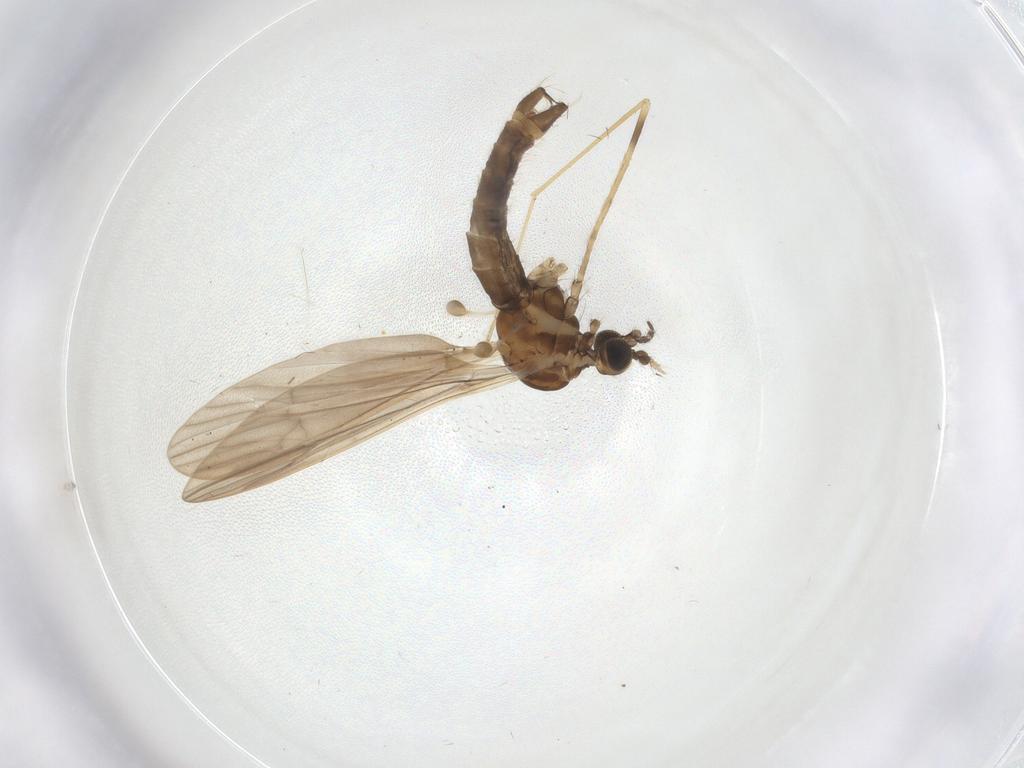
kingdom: Animalia
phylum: Arthropoda
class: Insecta
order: Diptera
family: Limoniidae
